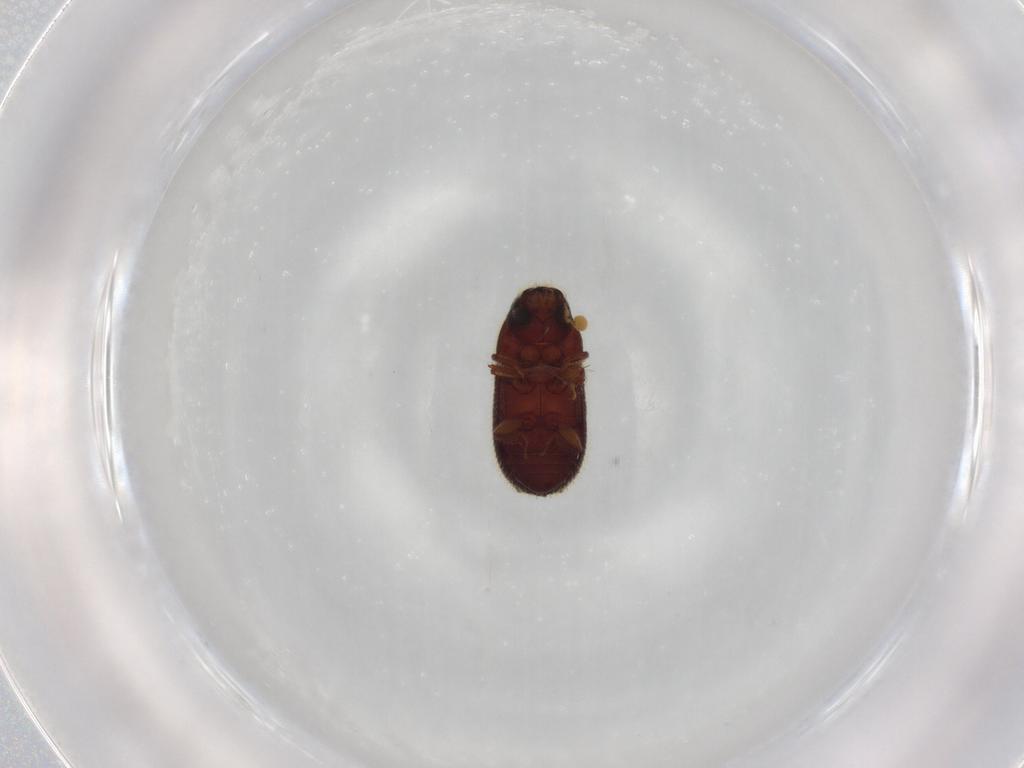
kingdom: Animalia
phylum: Arthropoda
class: Insecta
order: Coleoptera
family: Curculionidae
